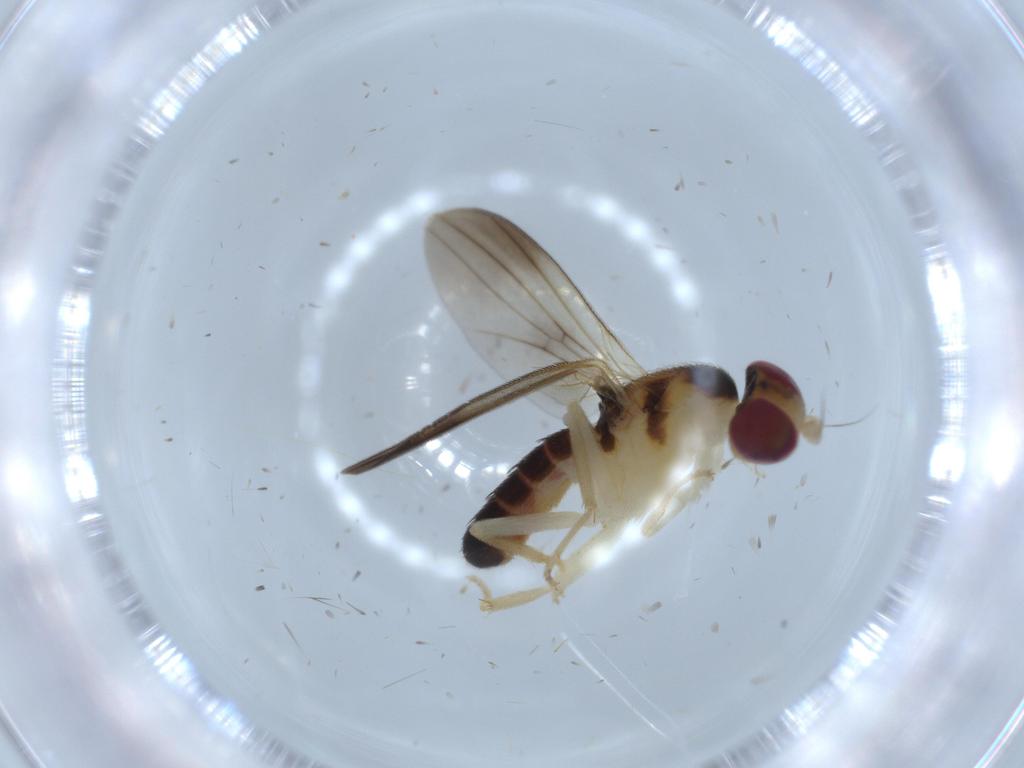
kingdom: Animalia
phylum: Arthropoda
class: Insecta
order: Diptera
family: Clusiidae
